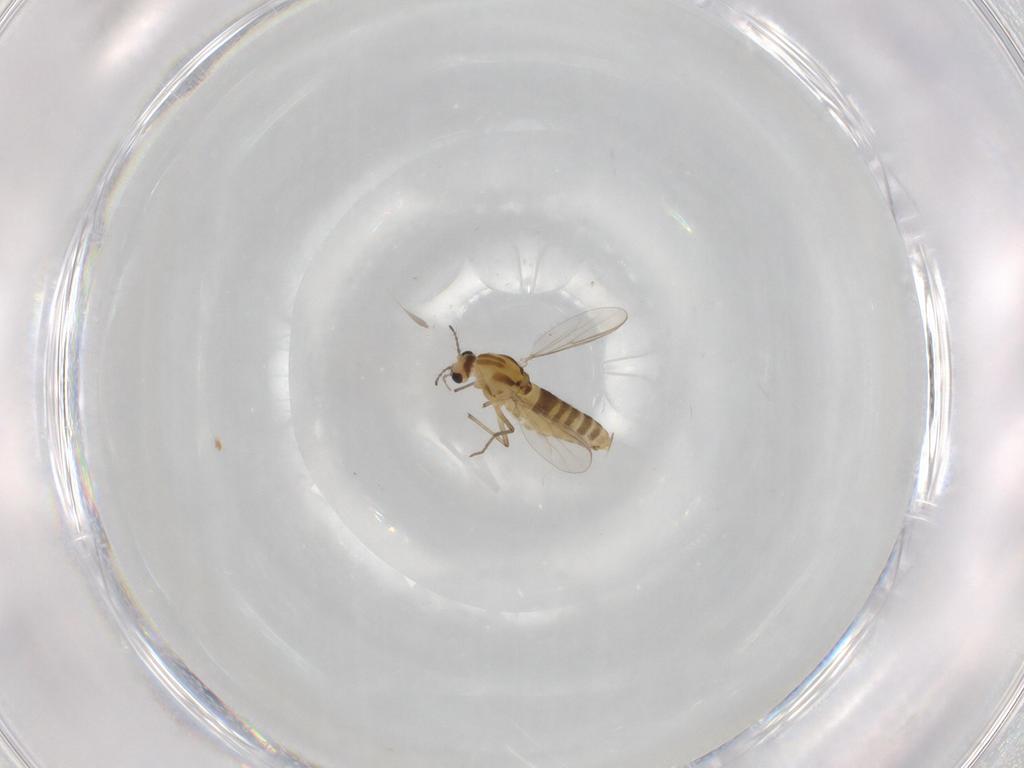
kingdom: Animalia
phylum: Arthropoda
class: Insecta
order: Diptera
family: Chironomidae
